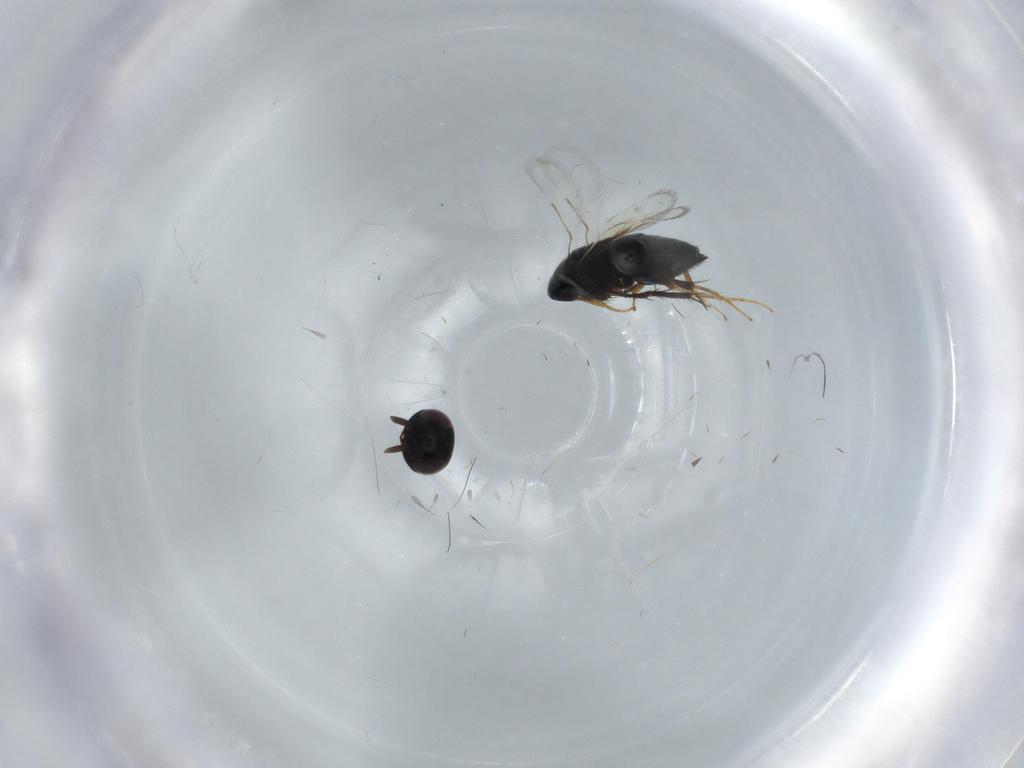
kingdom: Animalia
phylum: Arthropoda
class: Insecta
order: Hymenoptera
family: Signiphoridae
